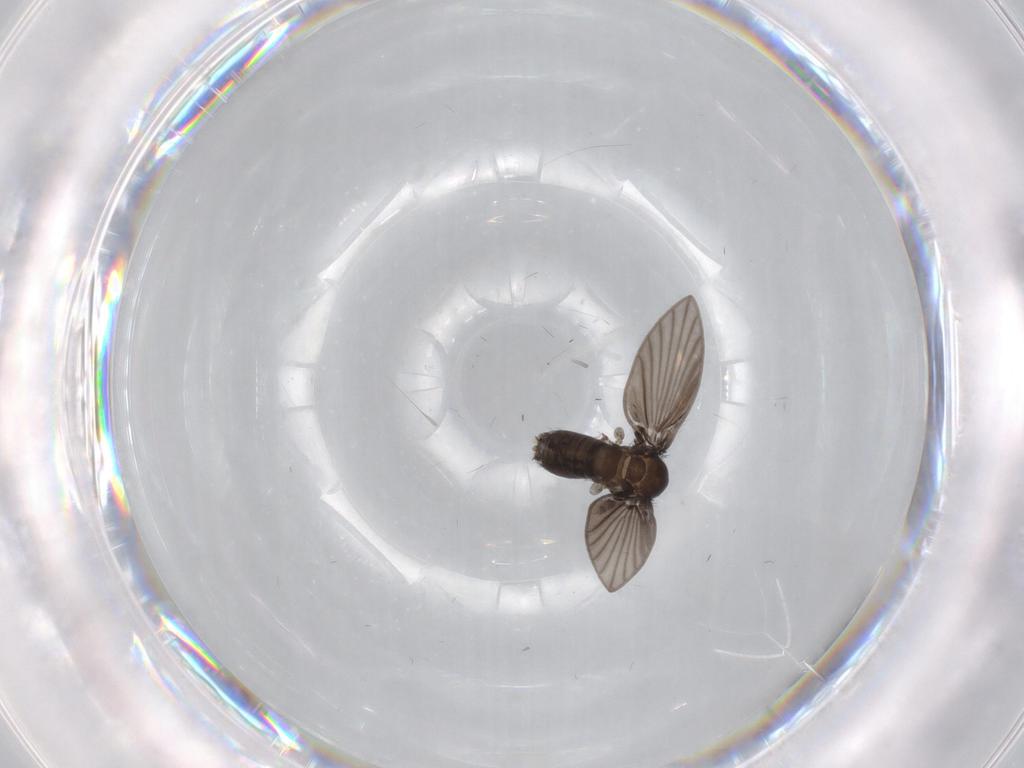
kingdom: Animalia
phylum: Arthropoda
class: Insecta
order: Diptera
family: Psychodidae
